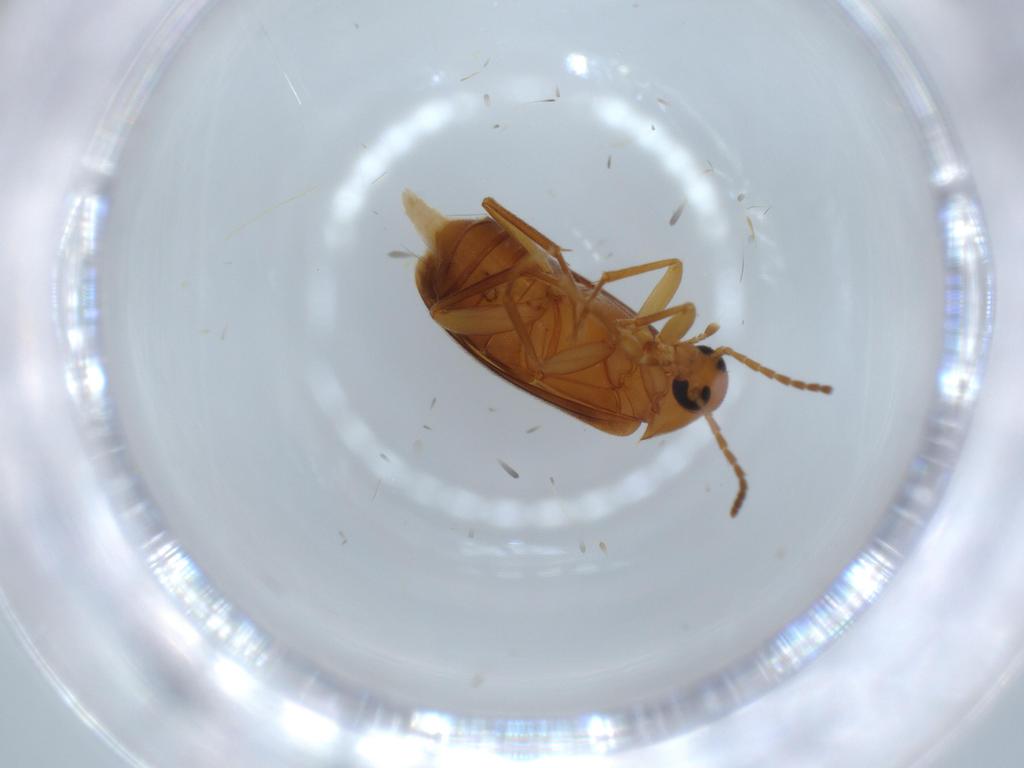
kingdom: Animalia
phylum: Arthropoda
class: Insecta
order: Coleoptera
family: Scraptiidae
